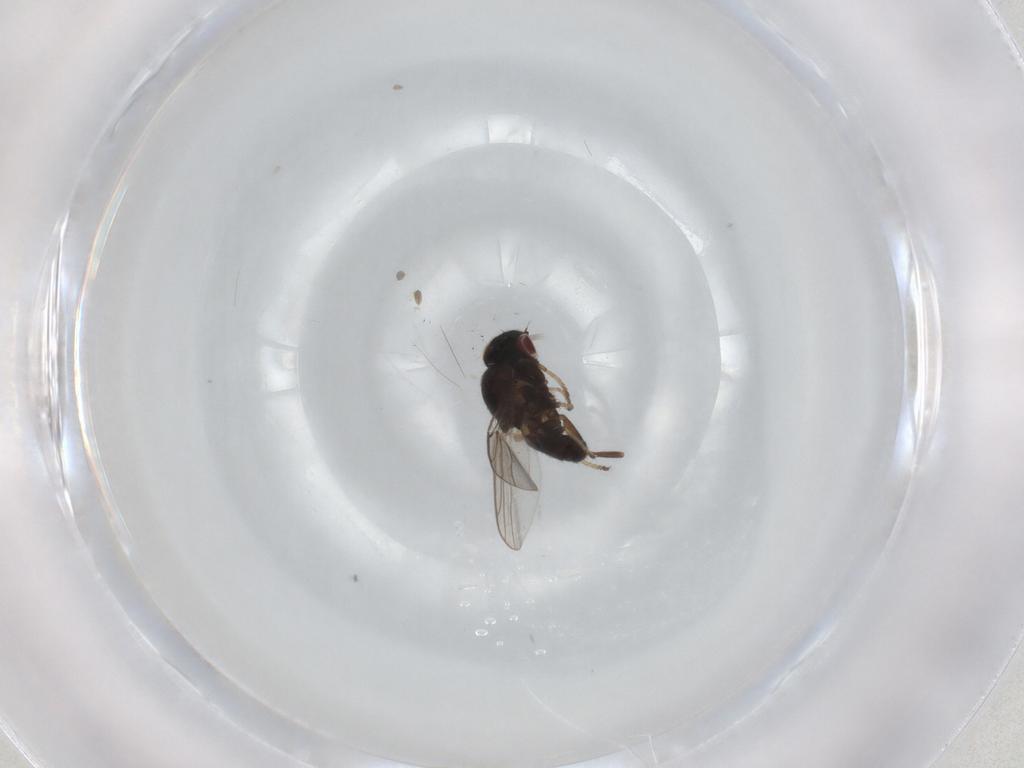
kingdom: Animalia
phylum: Arthropoda
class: Insecta
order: Diptera
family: Chloropidae
